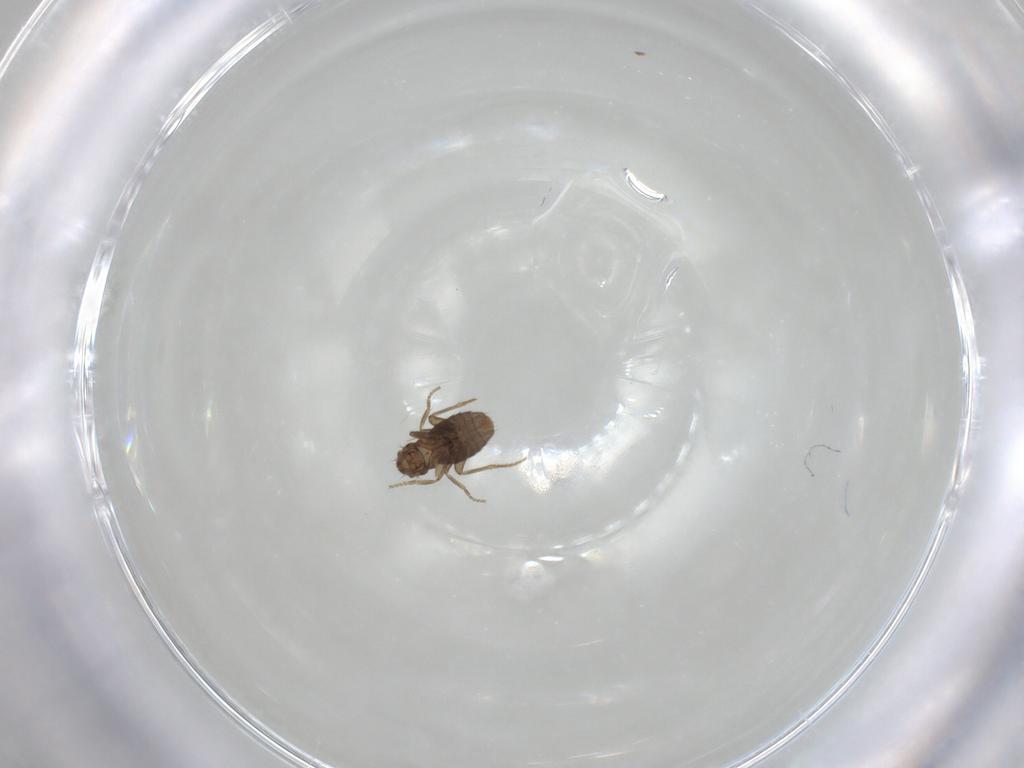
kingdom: Animalia
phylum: Arthropoda
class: Insecta
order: Diptera
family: Phoridae
